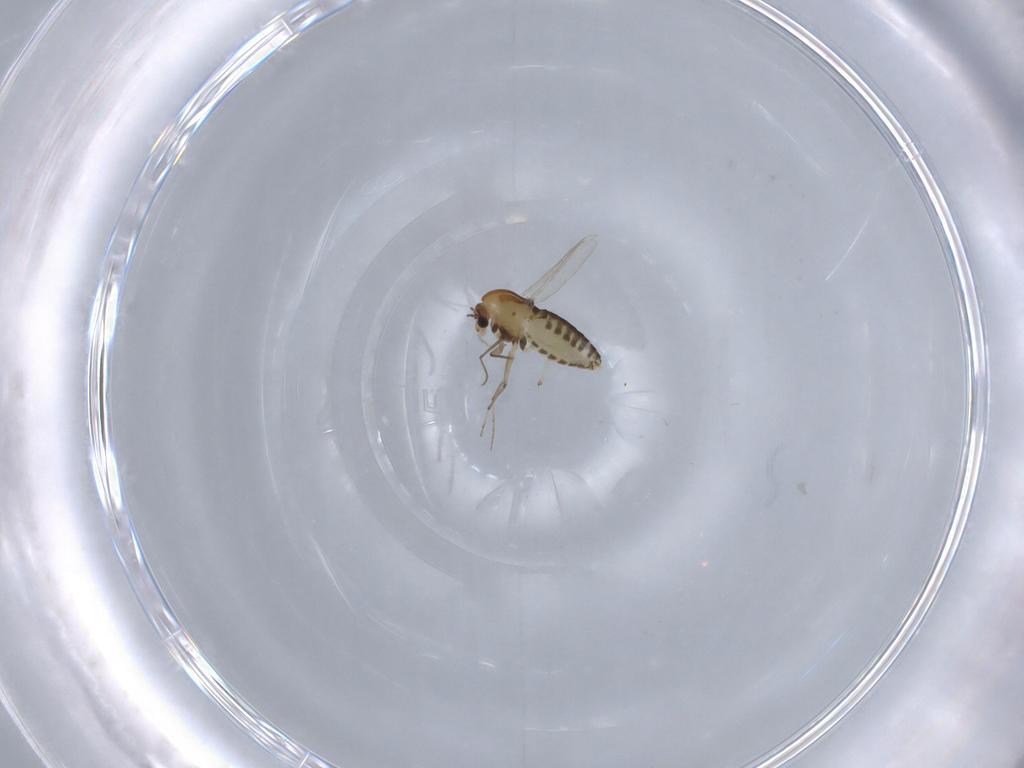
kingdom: Animalia
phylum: Arthropoda
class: Insecta
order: Diptera
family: Chironomidae
